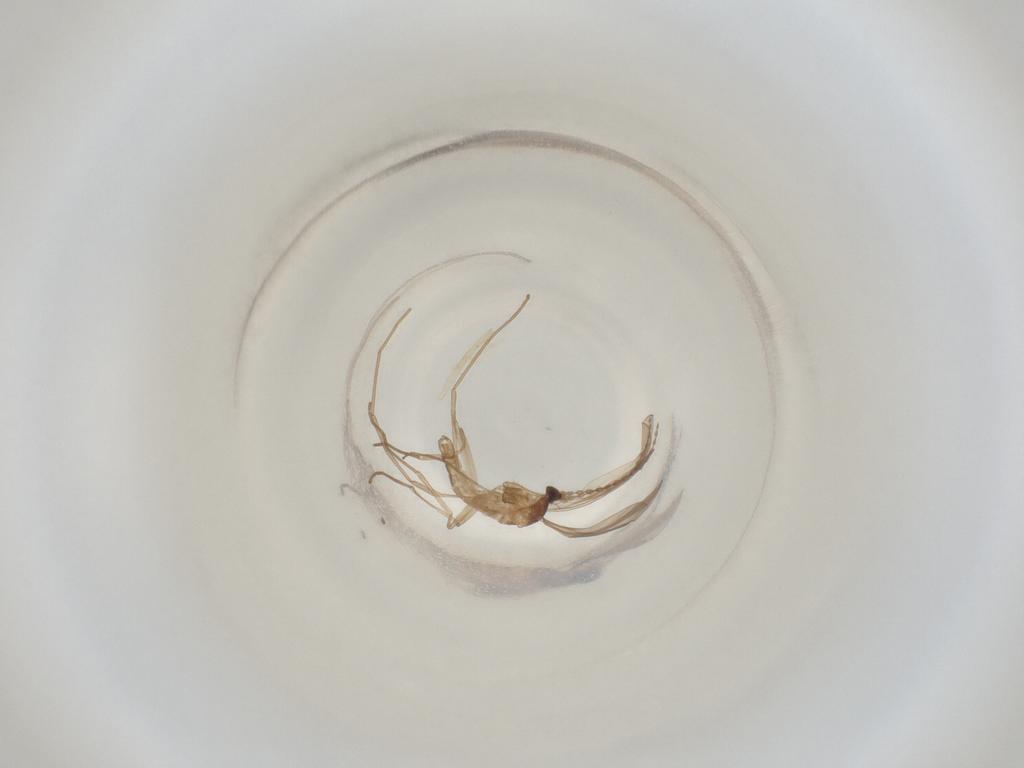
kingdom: Animalia
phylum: Arthropoda
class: Insecta
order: Diptera
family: Cecidomyiidae
